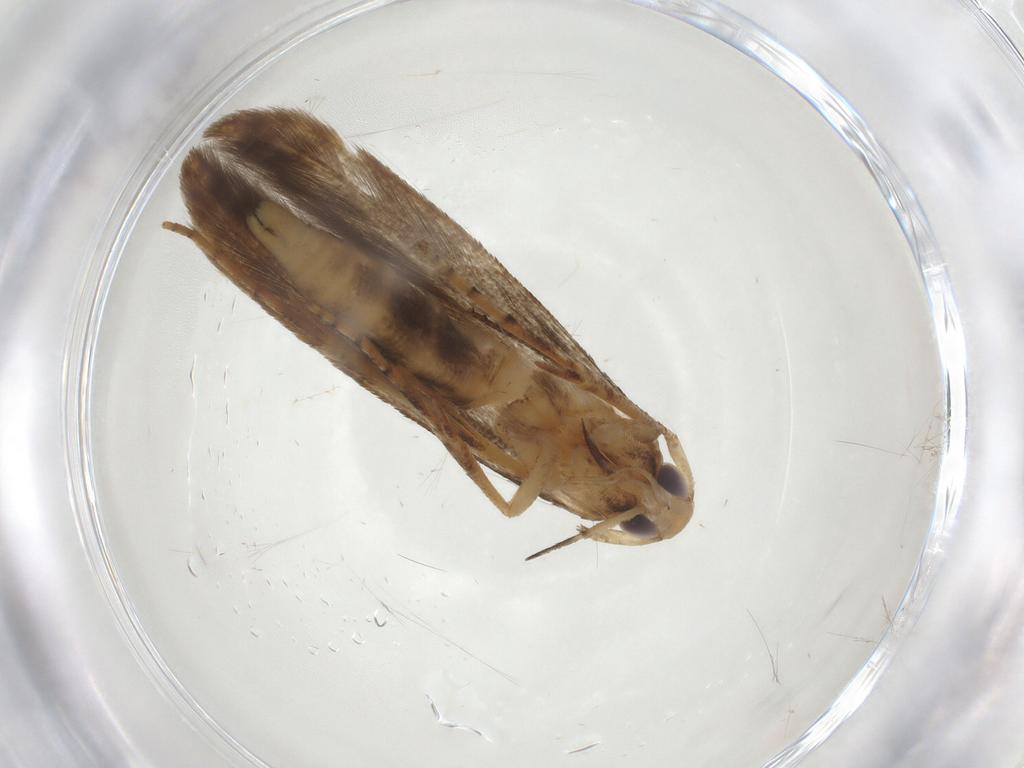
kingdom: Animalia
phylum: Arthropoda
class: Insecta
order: Lepidoptera
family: Heliodinidae
